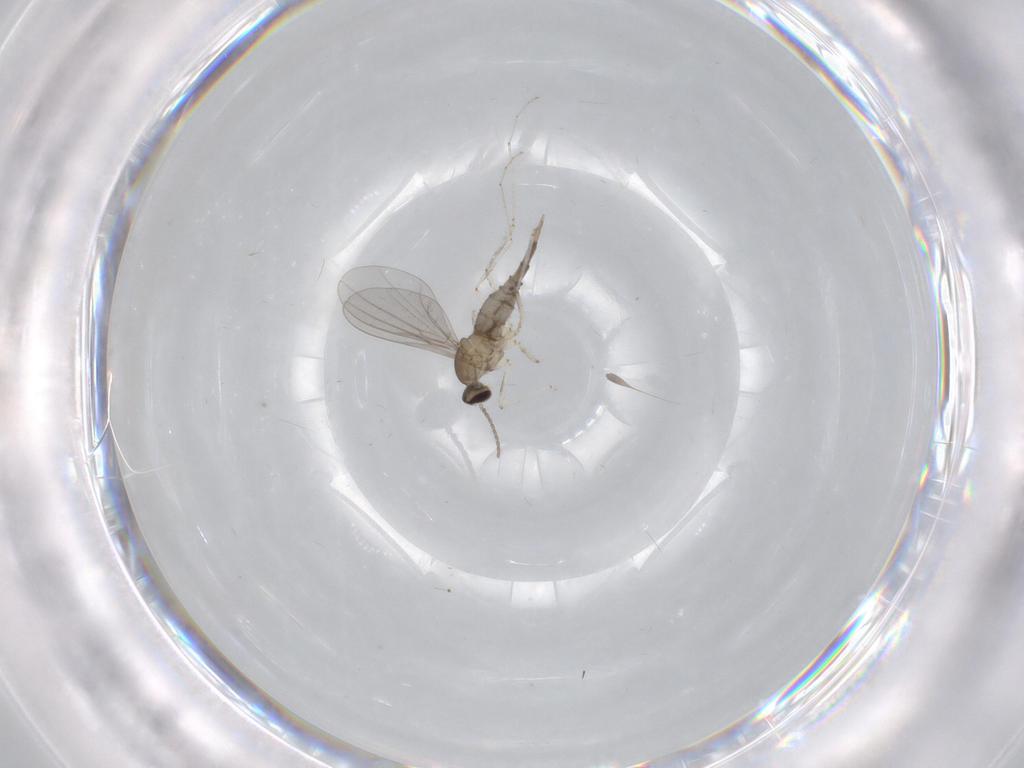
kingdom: Animalia
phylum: Arthropoda
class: Insecta
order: Diptera
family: Cecidomyiidae
